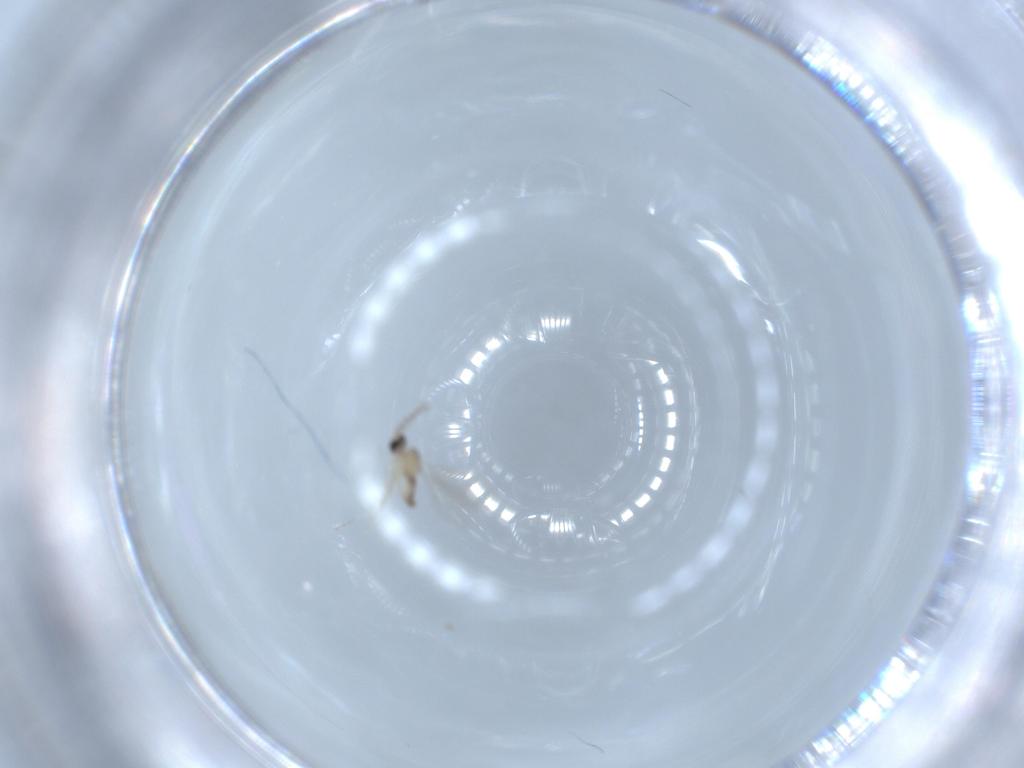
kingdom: Animalia
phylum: Arthropoda
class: Insecta
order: Diptera
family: Cecidomyiidae
